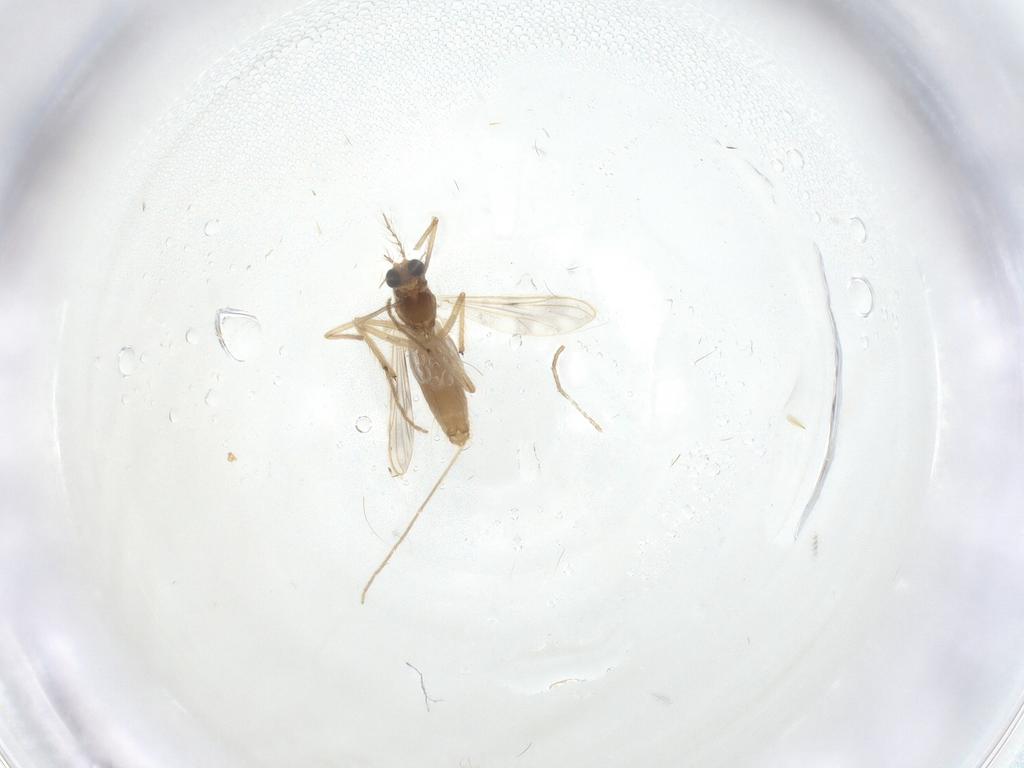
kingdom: Animalia
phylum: Arthropoda
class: Insecta
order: Diptera
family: Chironomidae
